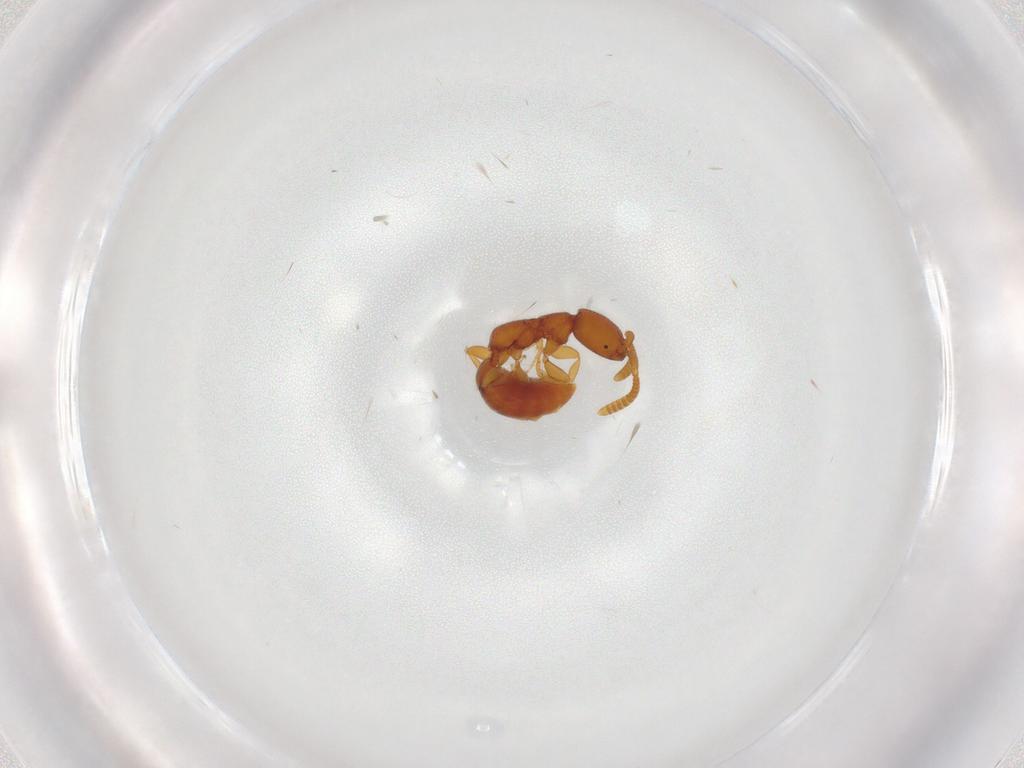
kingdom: Animalia
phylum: Arthropoda
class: Insecta
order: Hymenoptera
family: Bethylidae
